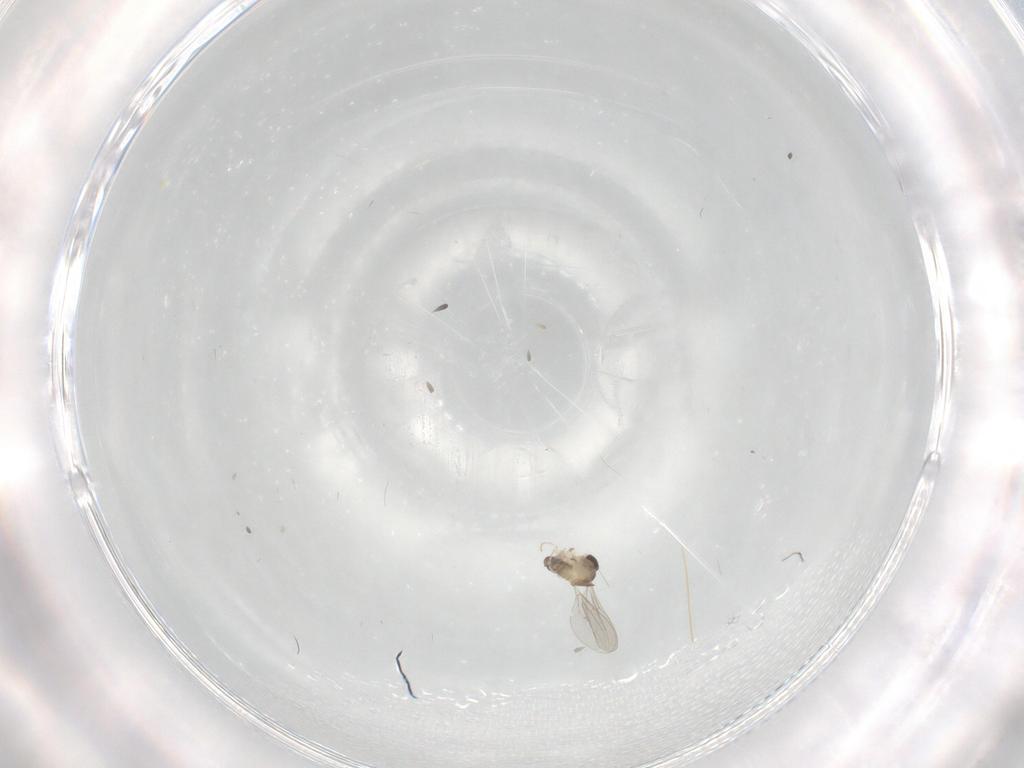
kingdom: Animalia
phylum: Arthropoda
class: Insecta
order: Diptera
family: Cecidomyiidae
